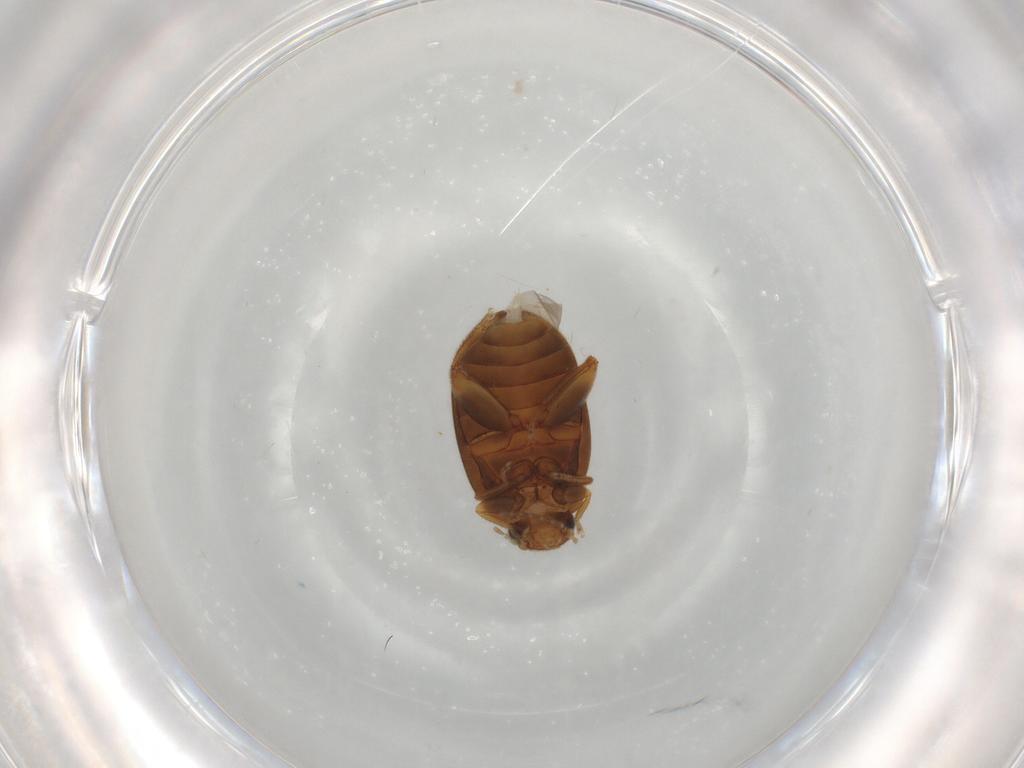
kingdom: Animalia
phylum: Arthropoda
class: Insecta
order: Coleoptera
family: Scirtidae
